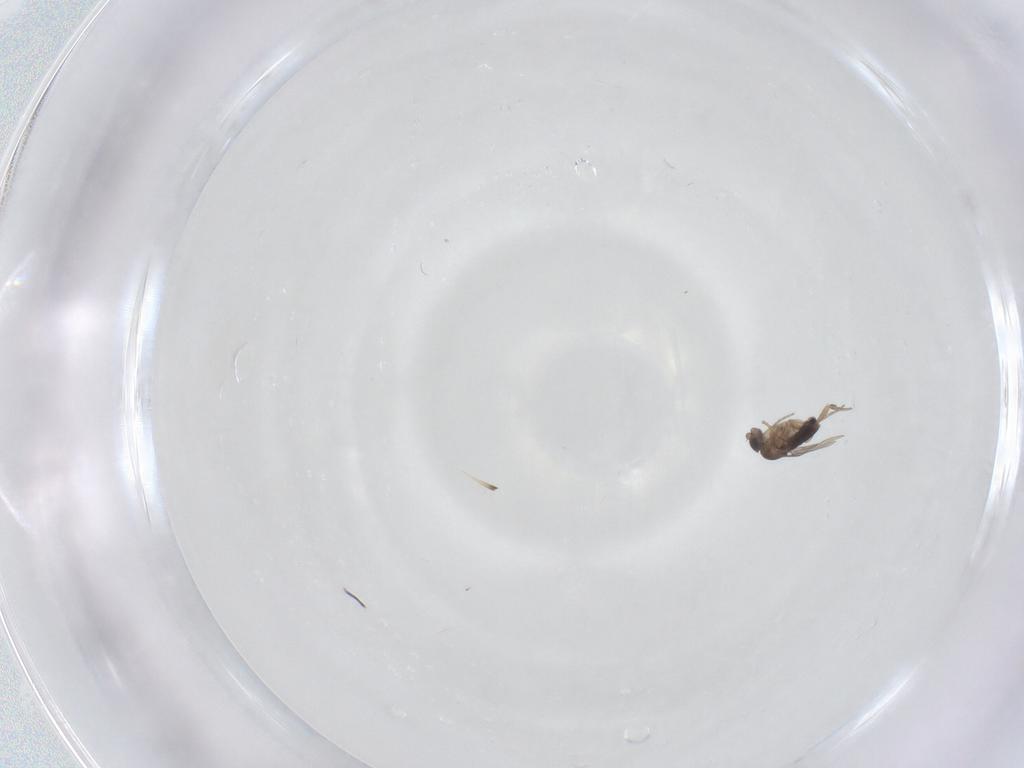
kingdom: Animalia
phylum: Arthropoda
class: Insecta
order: Diptera
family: Phoridae
